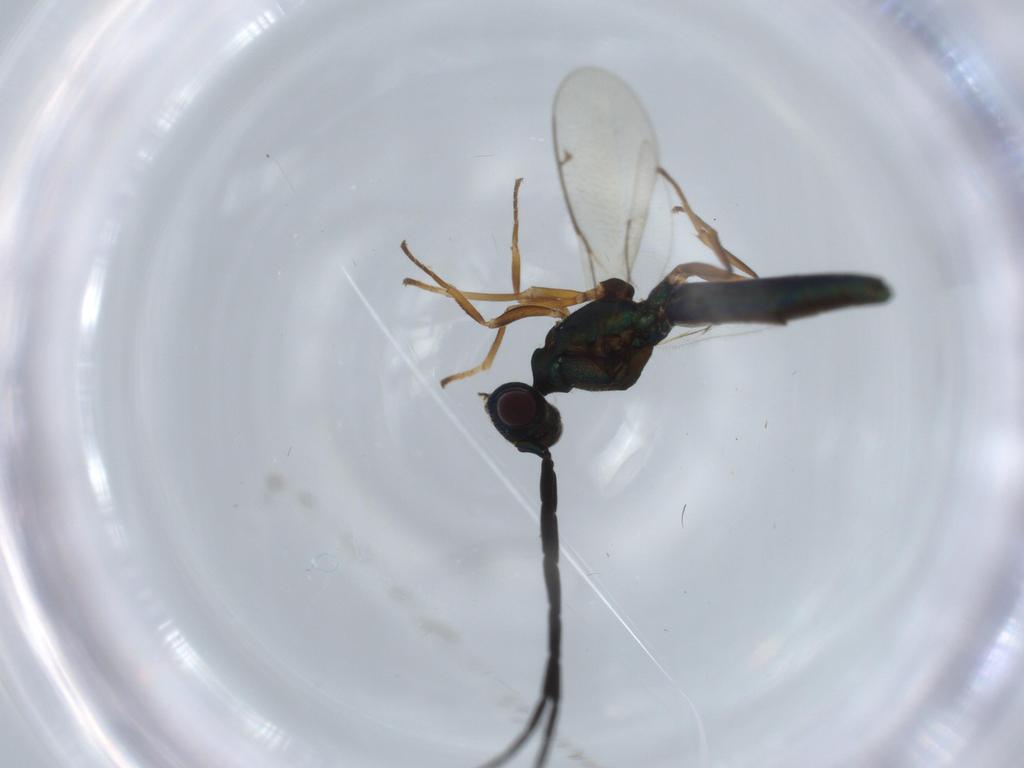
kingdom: Animalia
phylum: Arthropoda
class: Insecta
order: Hymenoptera
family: Eupelmidae
